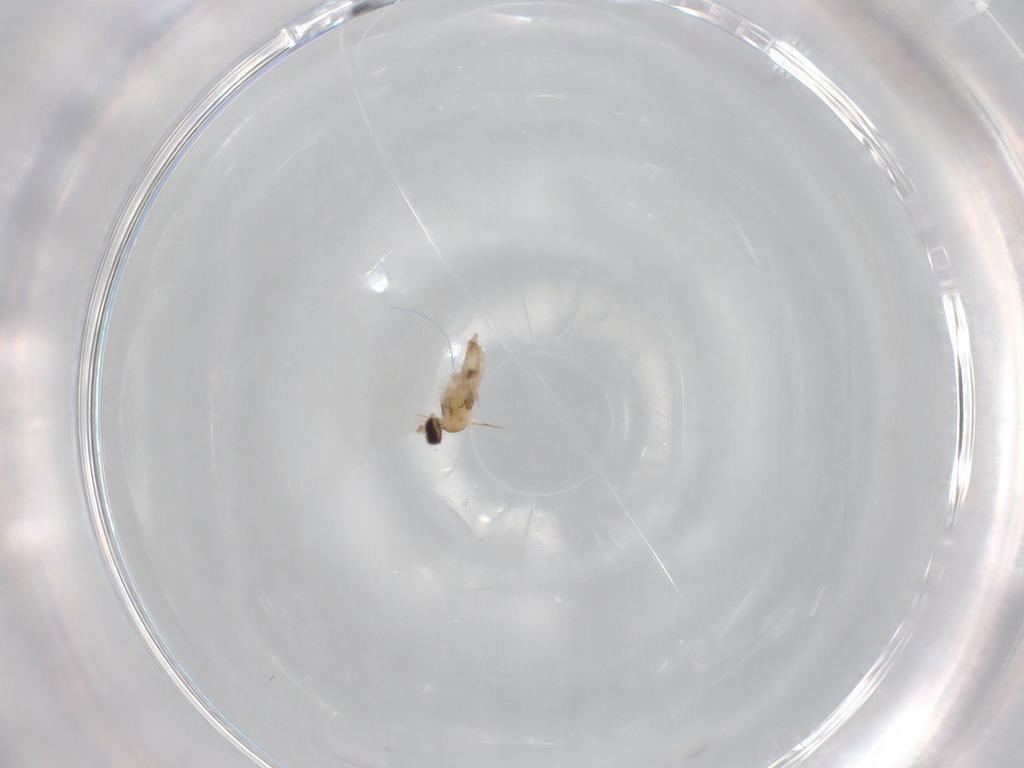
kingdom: Animalia
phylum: Arthropoda
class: Insecta
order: Diptera
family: Cecidomyiidae
